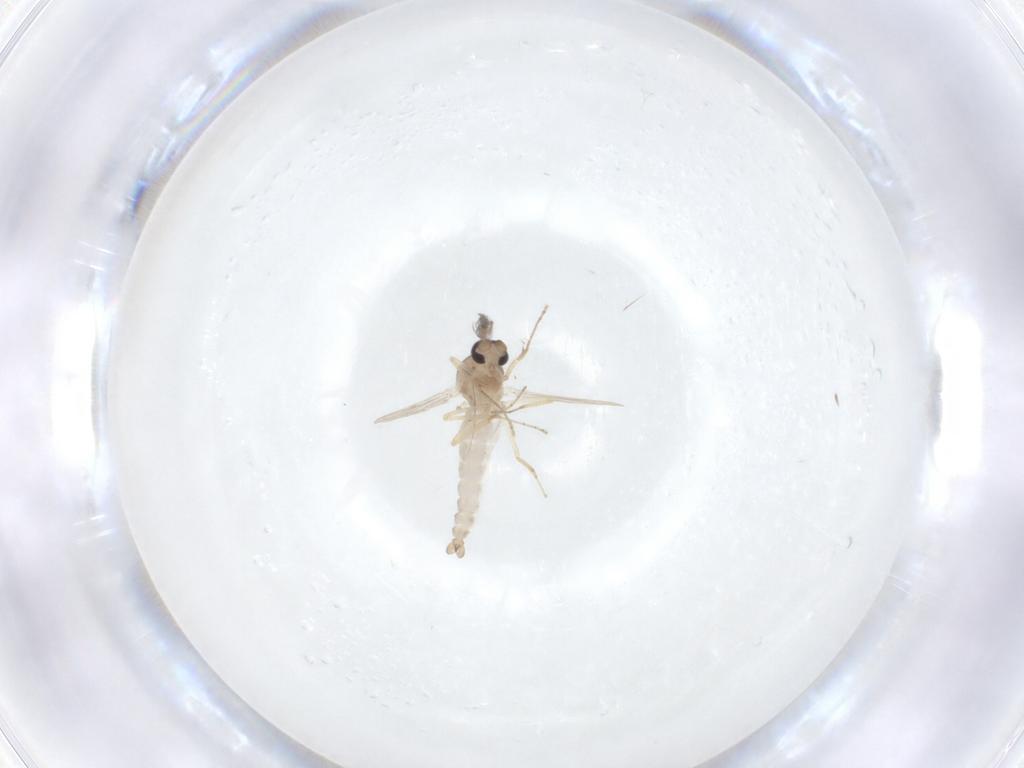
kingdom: Animalia
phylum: Arthropoda
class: Insecta
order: Diptera
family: Ceratopogonidae
